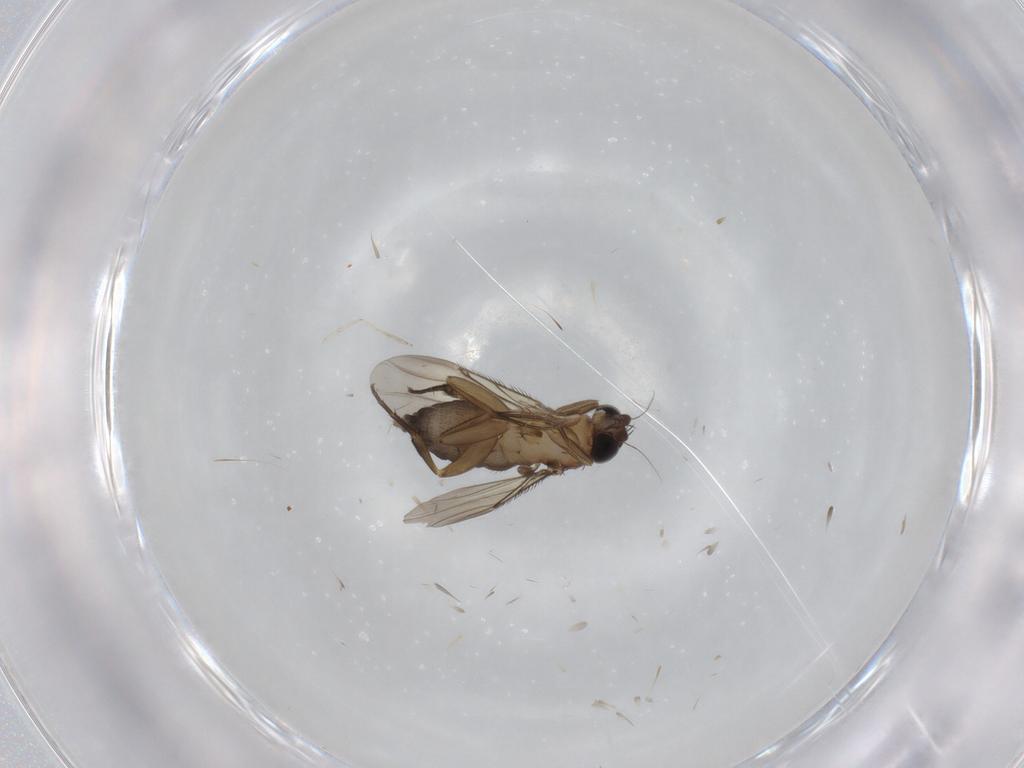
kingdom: Animalia
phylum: Arthropoda
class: Insecta
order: Diptera
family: Phoridae
